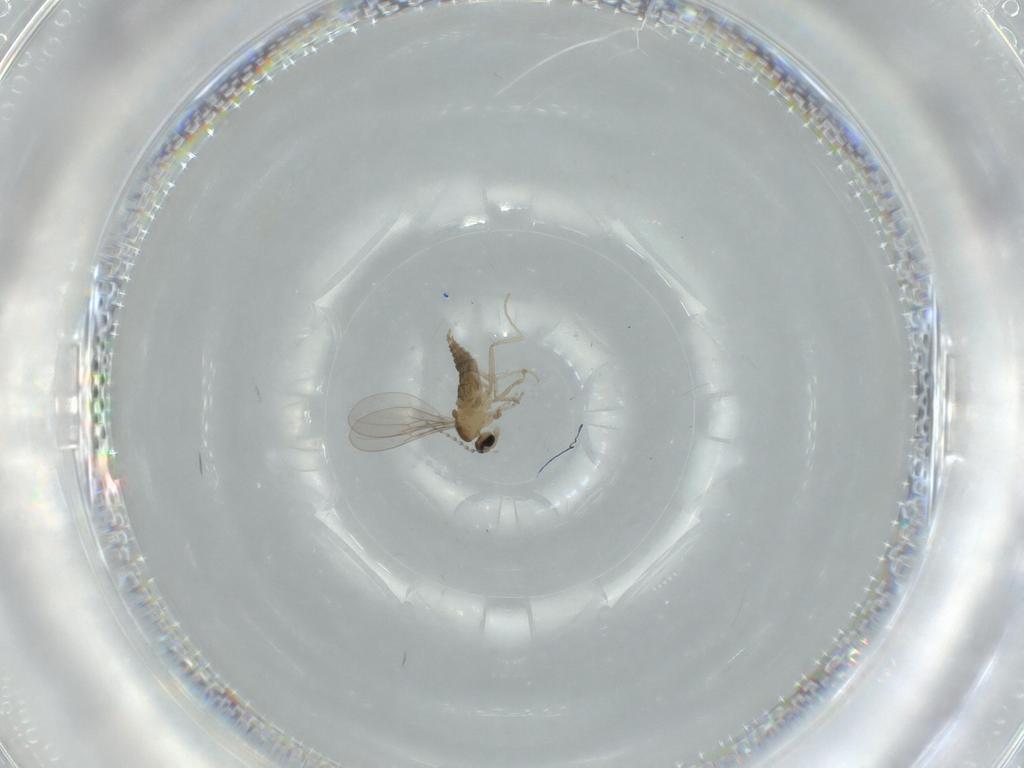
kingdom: Animalia
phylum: Arthropoda
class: Insecta
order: Diptera
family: Cecidomyiidae
